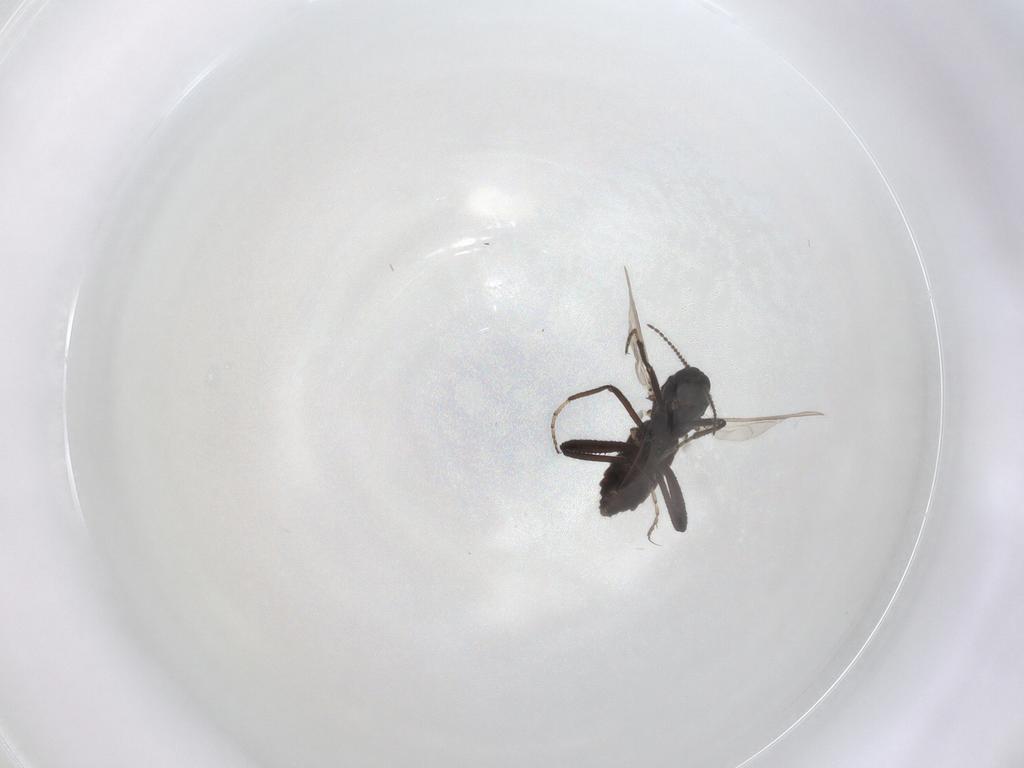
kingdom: Animalia
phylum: Arthropoda
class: Insecta
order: Diptera
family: Ceratopogonidae
